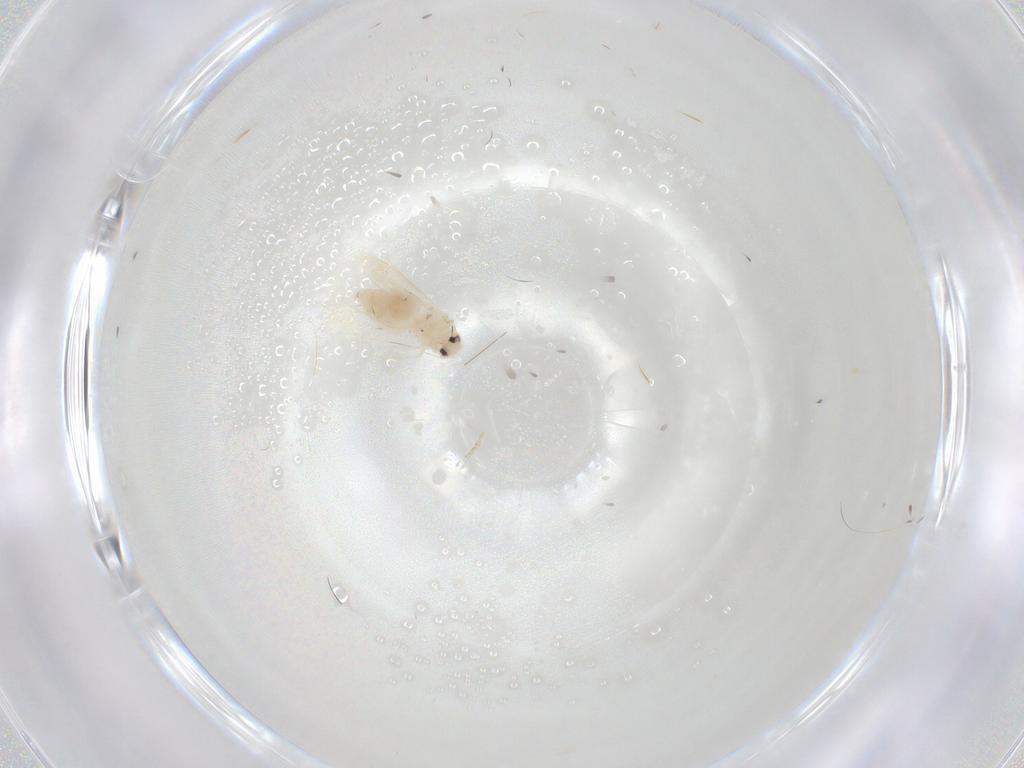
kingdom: Animalia
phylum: Arthropoda
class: Insecta
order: Hemiptera
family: Aleyrodidae
